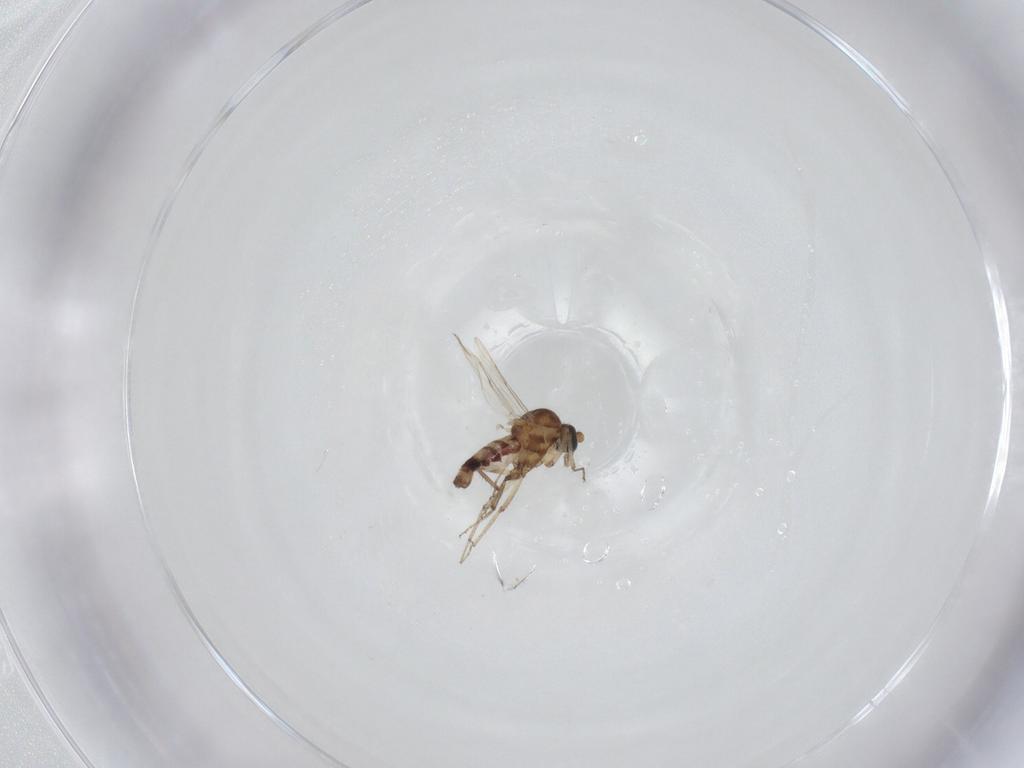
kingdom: Animalia
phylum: Arthropoda
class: Insecta
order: Diptera
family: Ceratopogonidae
